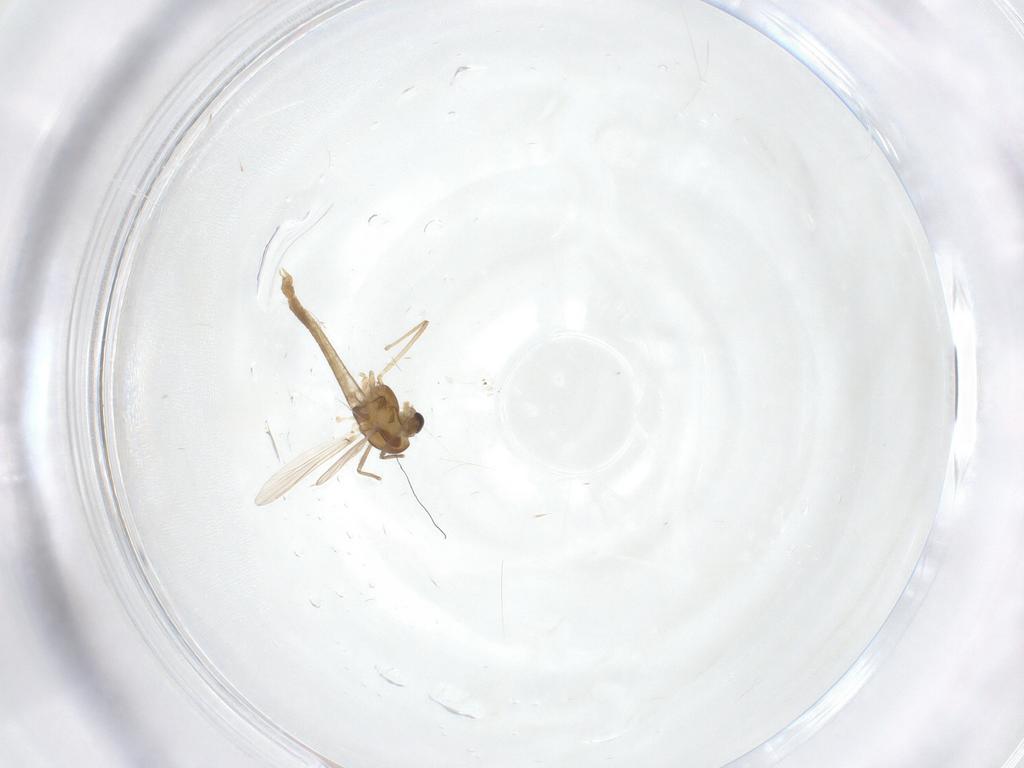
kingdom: Animalia
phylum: Arthropoda
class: Insecta
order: Diptera
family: Chironomidae
